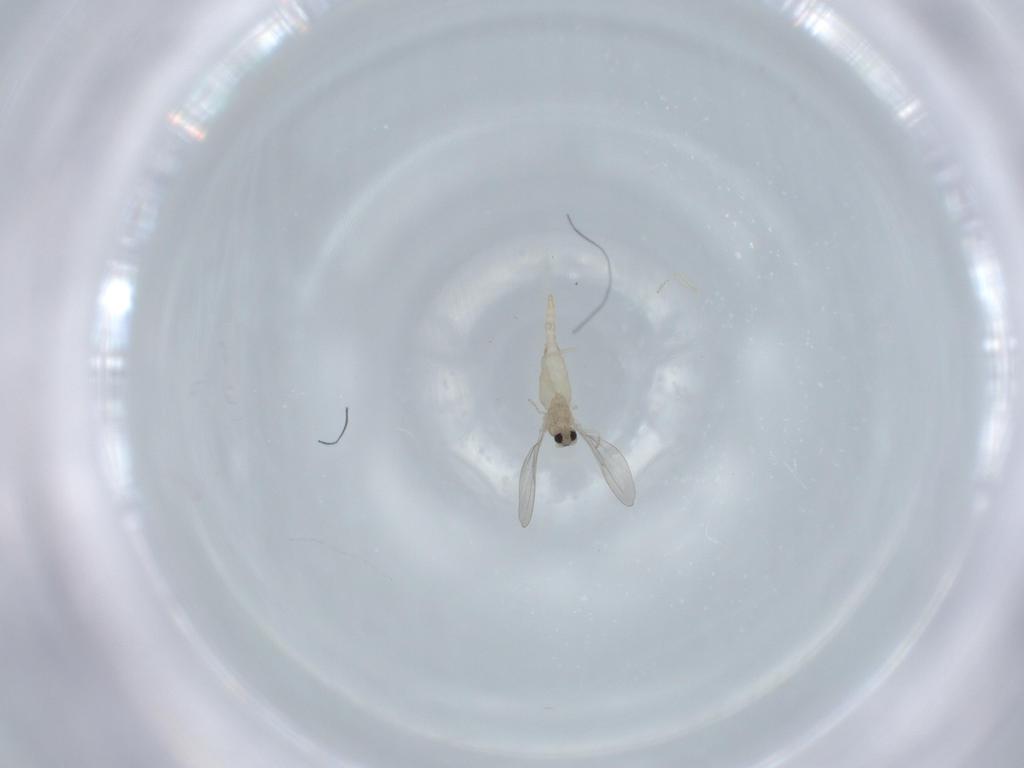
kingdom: Animalia
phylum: Arthropoda
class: Insecta
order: Diptera
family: Cecidomyiidae
